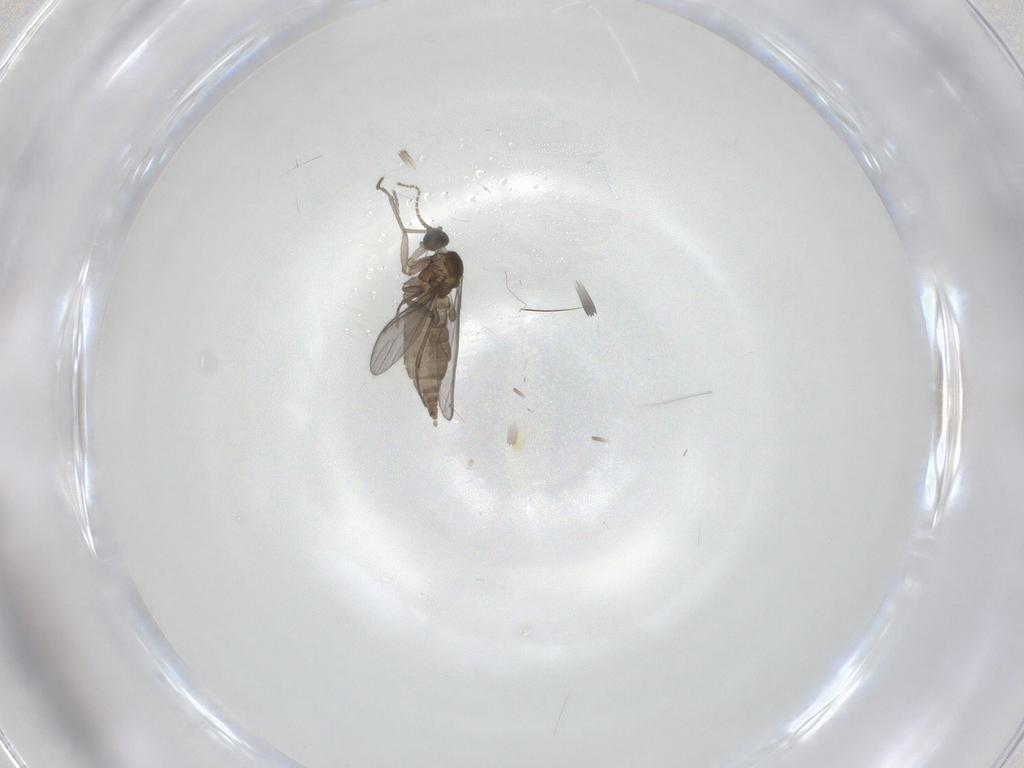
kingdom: Animalia
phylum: Arthropoda
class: Insecta
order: Diptera
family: Sciaridae
